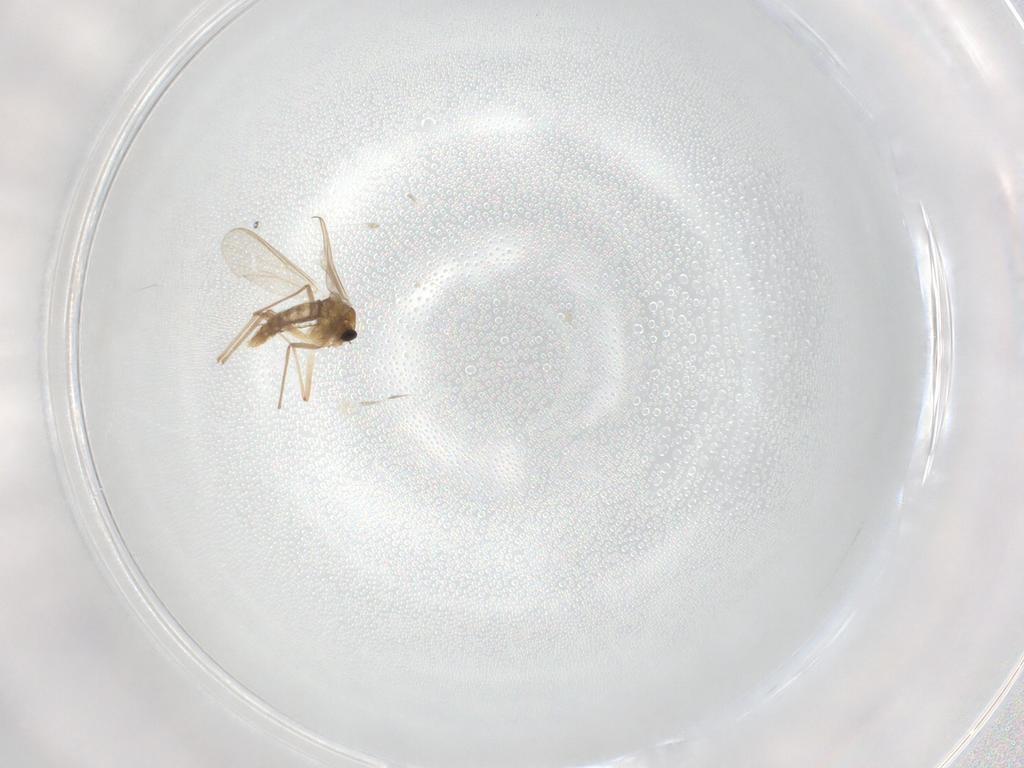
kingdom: Animalia
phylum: Arthropoda
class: Insecta
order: Diptera
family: Chironomidae
